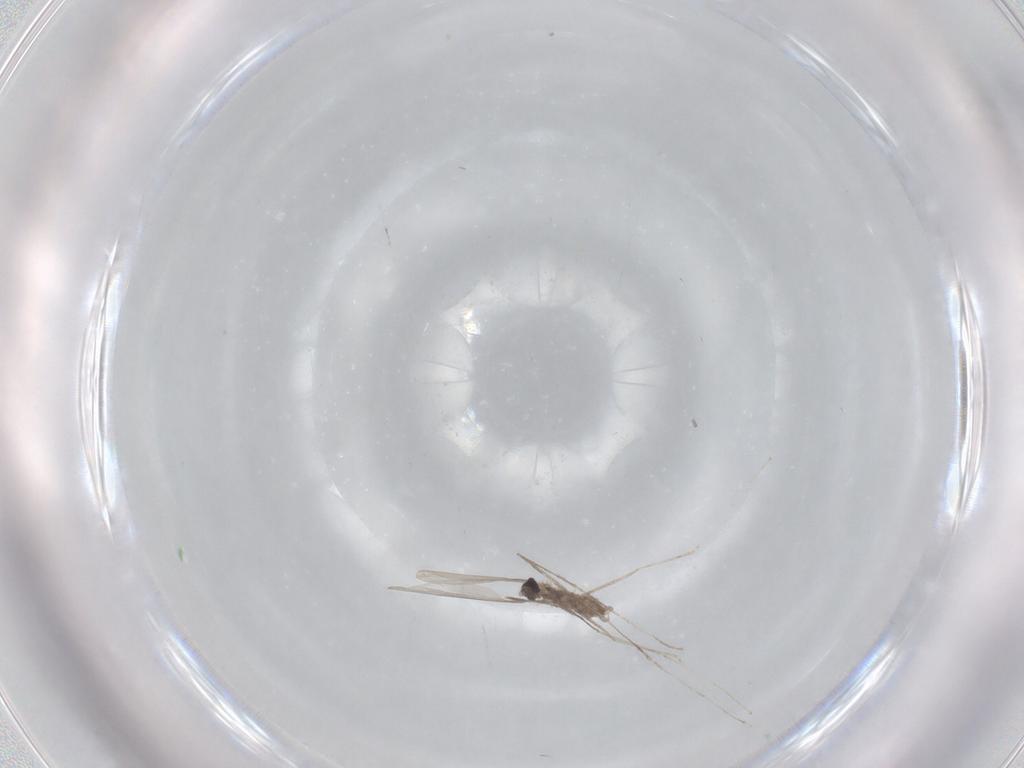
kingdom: Animalia
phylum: Arthropoda
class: Insecta
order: Diptera
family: Cecidomyiidae
